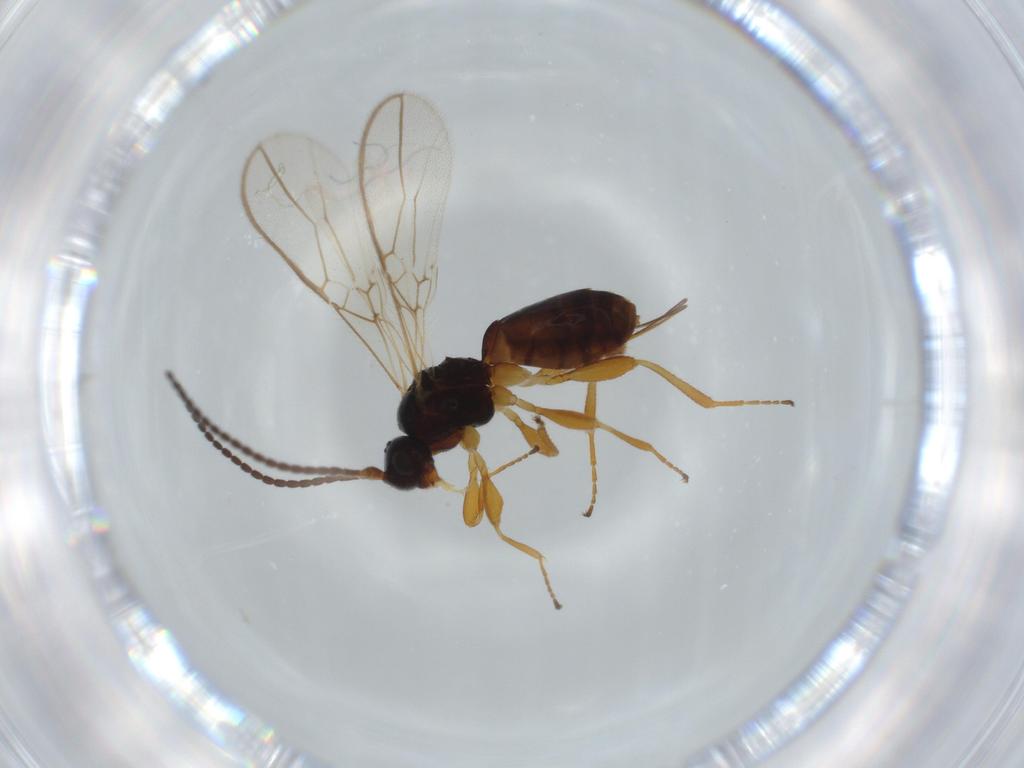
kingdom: Animalia
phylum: Arthropoda
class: Insecta
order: Hymenoptera
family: Braconidae
